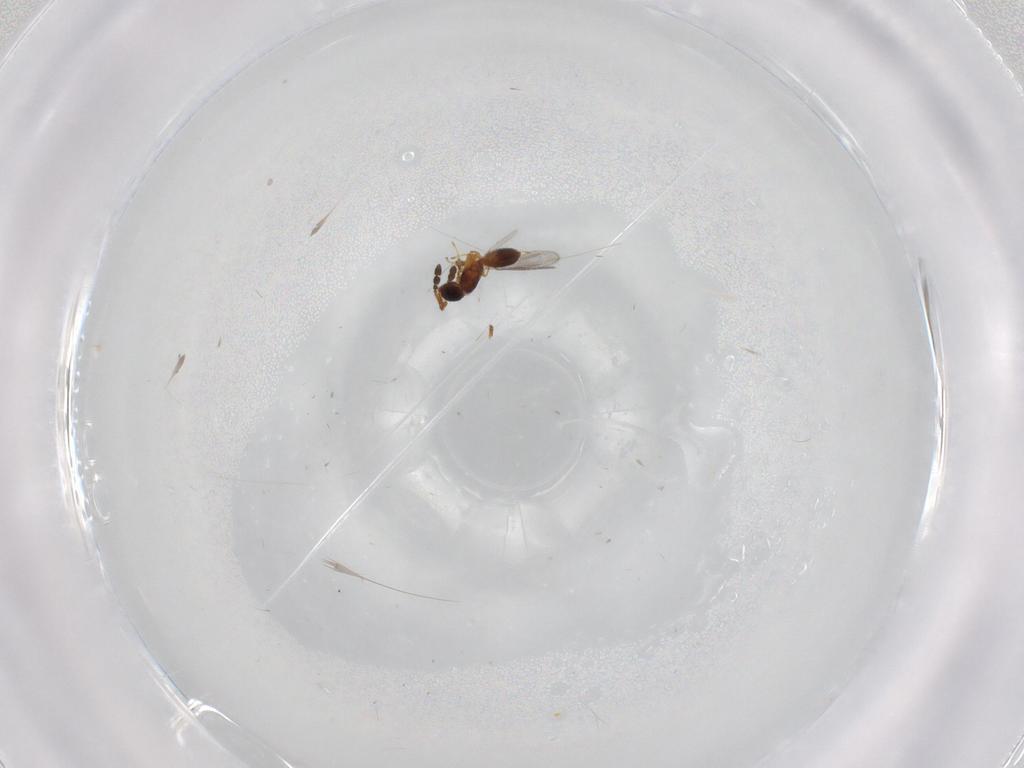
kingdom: Animalia
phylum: Arthropoda
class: Insecta
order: Hymenoptera
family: Diapriidae
